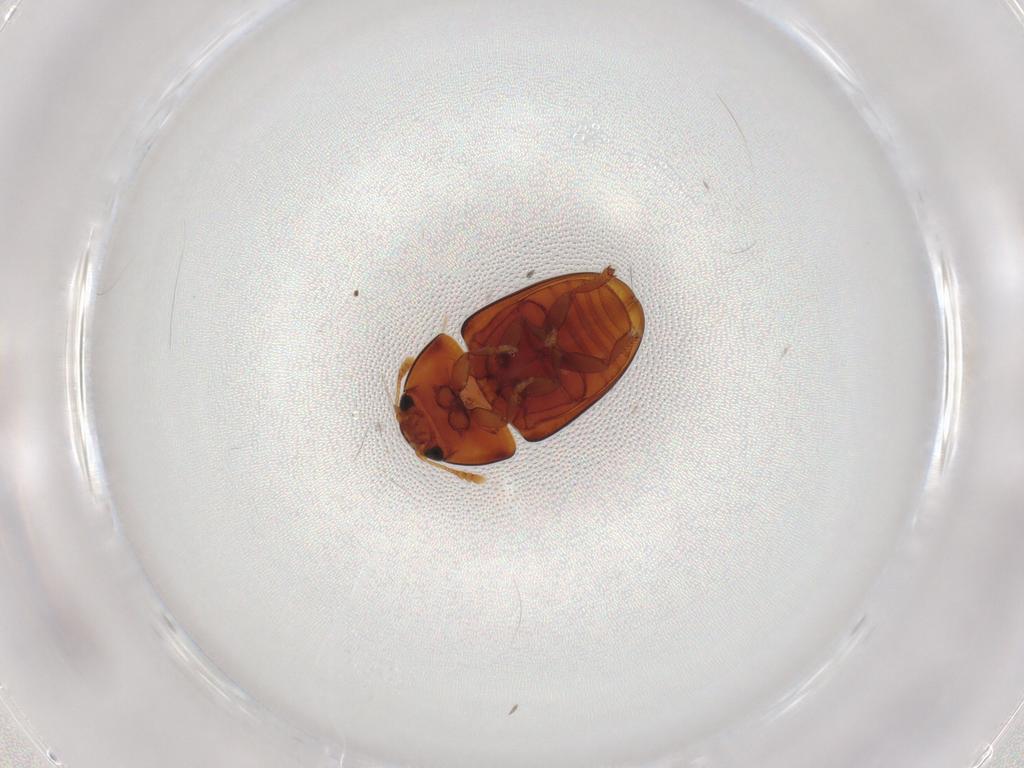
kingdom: Animalia
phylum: Arthropoda
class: Insecta
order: Coleoptera
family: Phalacridae
